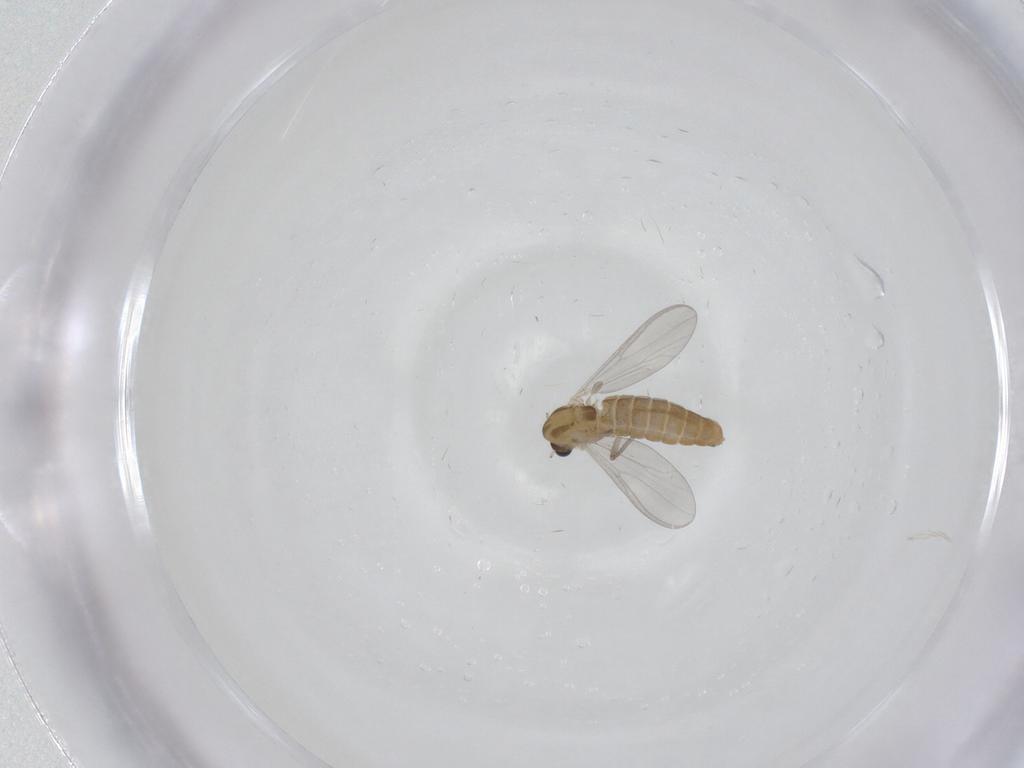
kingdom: Animalia
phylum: Arthropoda
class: Insecta
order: Diptera
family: Chironomidae
